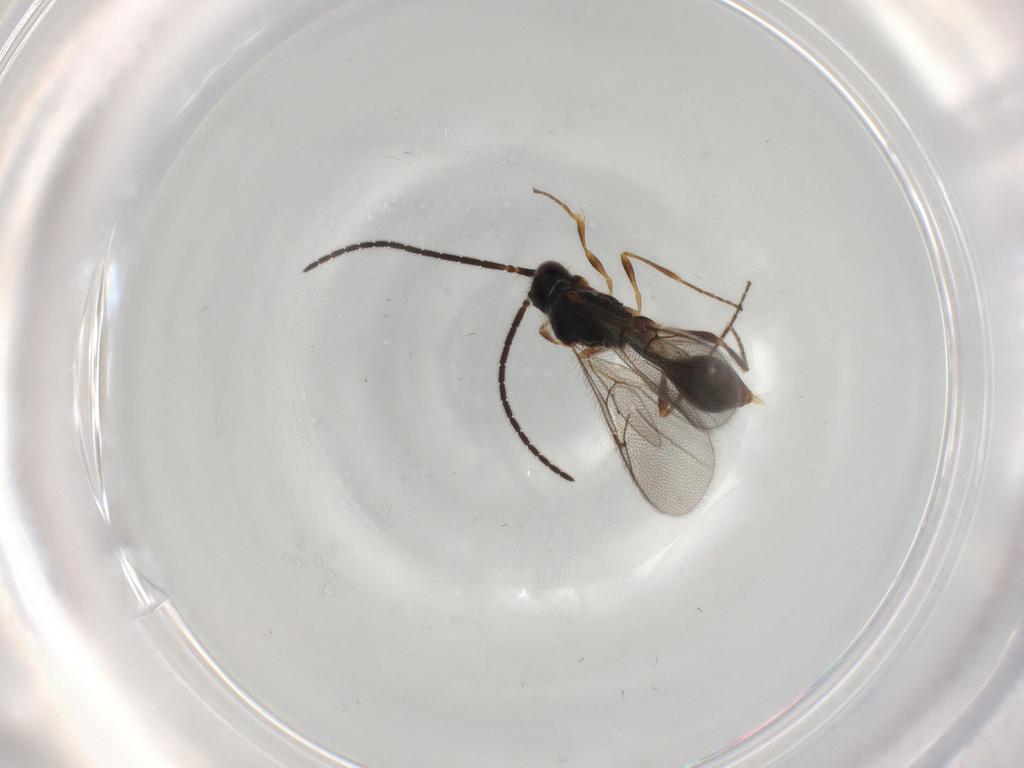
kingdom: Animalia
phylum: Arthropoda
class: Insecta
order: Hymenoptera
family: Diapriidae
